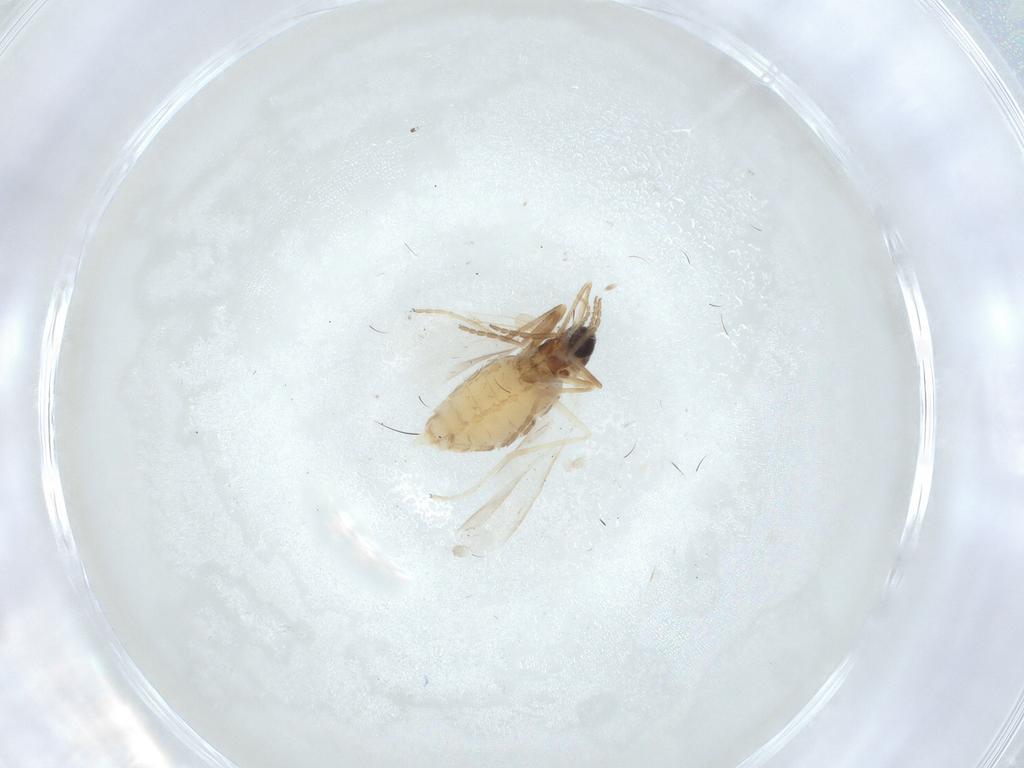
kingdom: Animalia
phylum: Arthropoda
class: Insecta
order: Diptera
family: Cecidomyiidae
